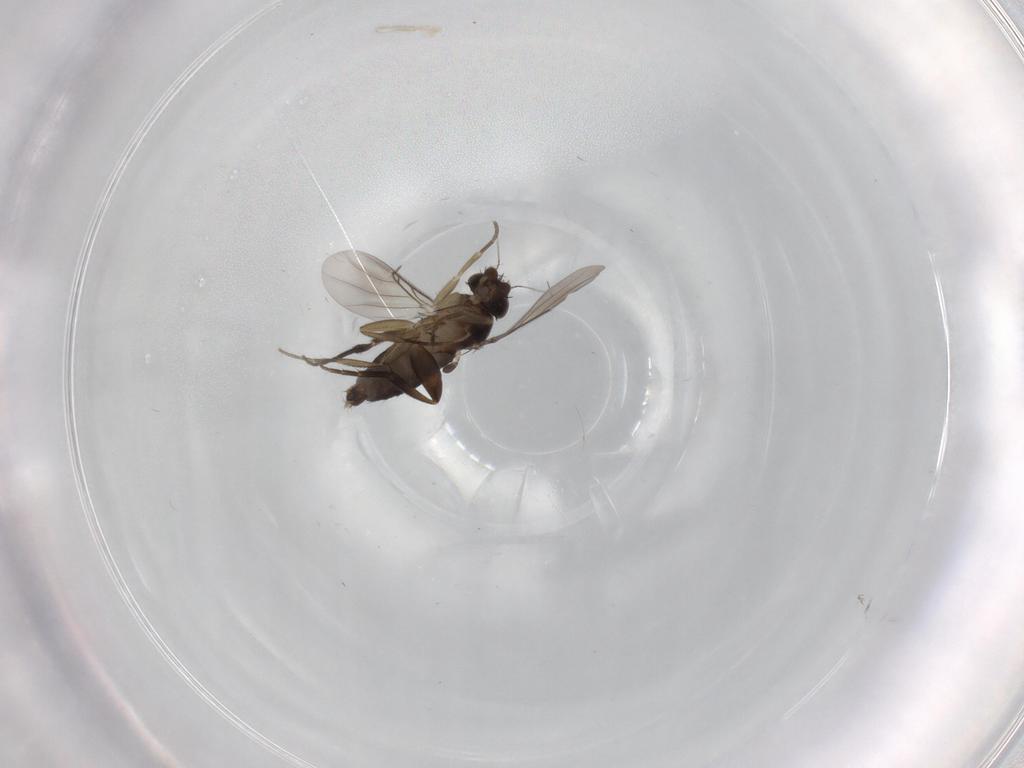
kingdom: Animalia
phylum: Arthropoda
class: Insecta
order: Diptera
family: Phoridae
